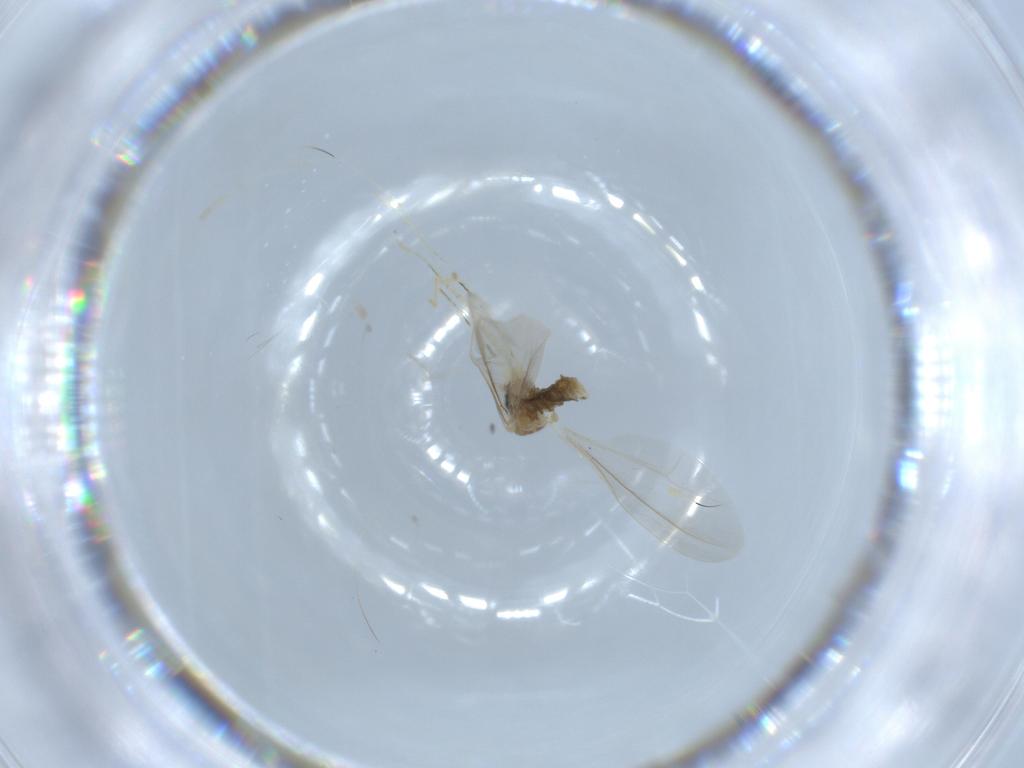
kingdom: Animalia
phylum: Arthropoda
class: Insecta
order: Diptera
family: Cecidomyiidae
